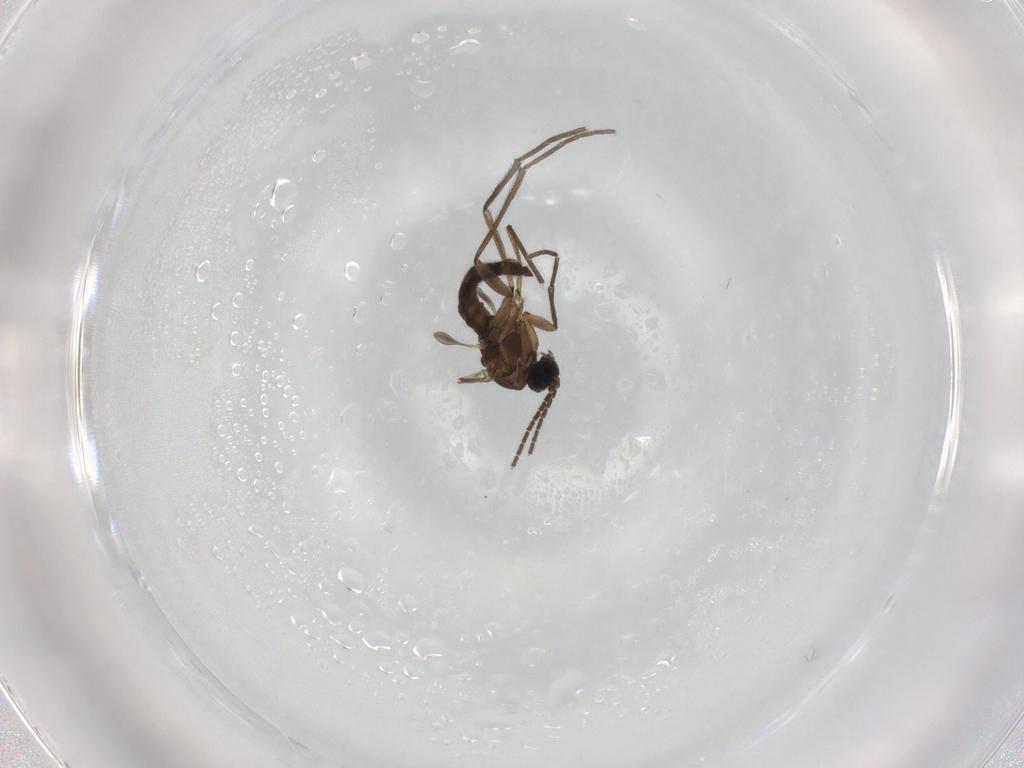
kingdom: Animalia
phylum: Arthropoda
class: Insecta
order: Diptera
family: Sciaridae
